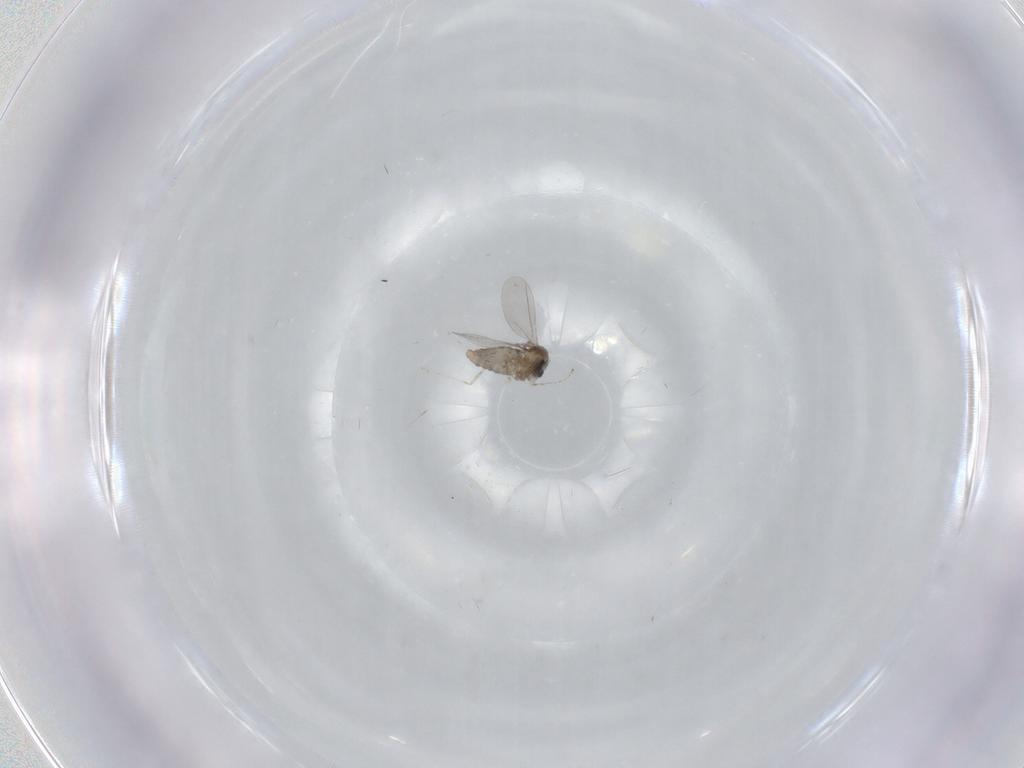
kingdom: Animalia
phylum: Arthropoda
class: Insecta
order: Diptera
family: Cecidomyiidae
